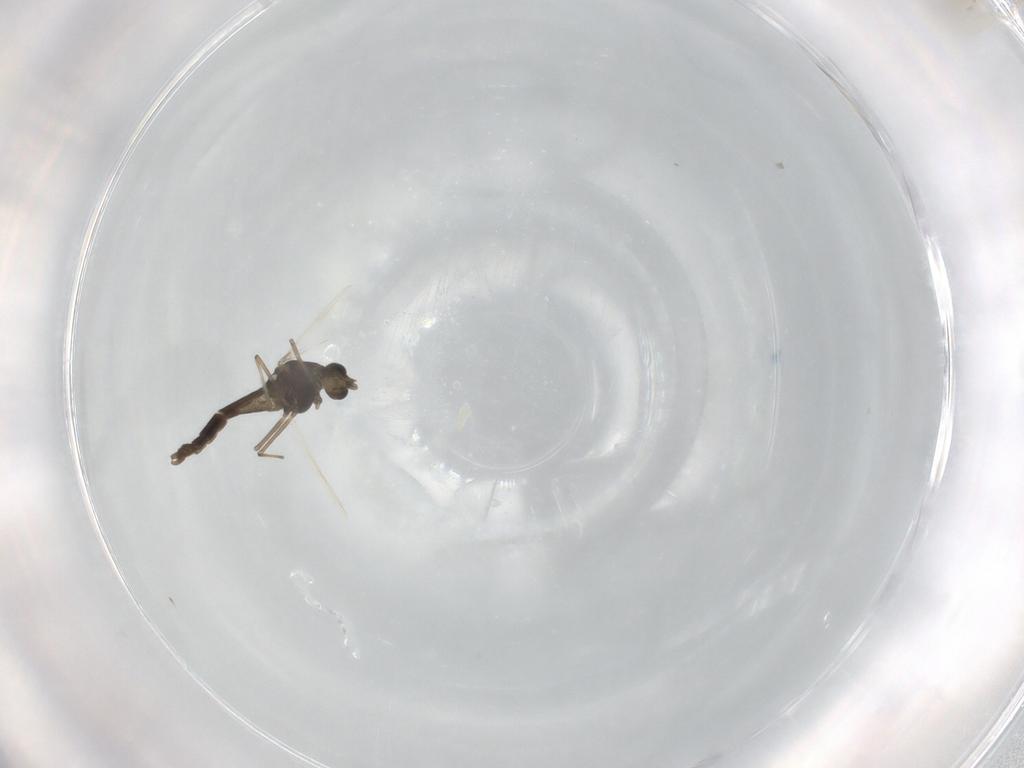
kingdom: Animalia
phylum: Arthropoda
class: Insecta
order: Diptera
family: Chironomidae
